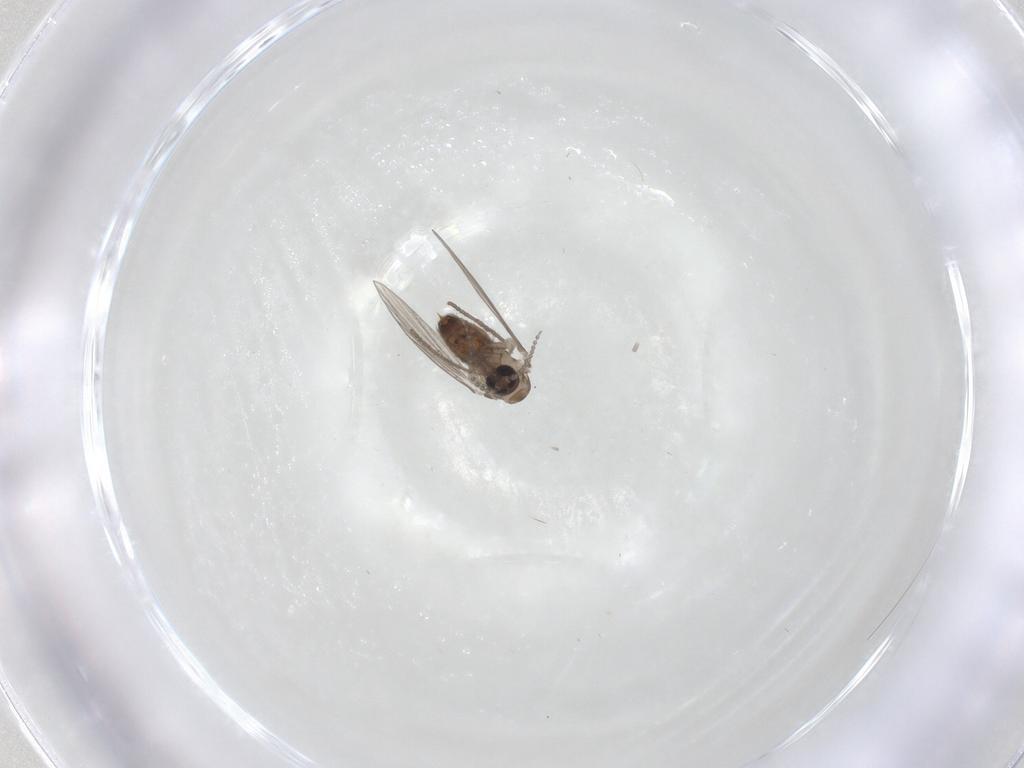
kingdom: Animalia
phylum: Arthropoda
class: Insecta
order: Diptera
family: Psychodidae
